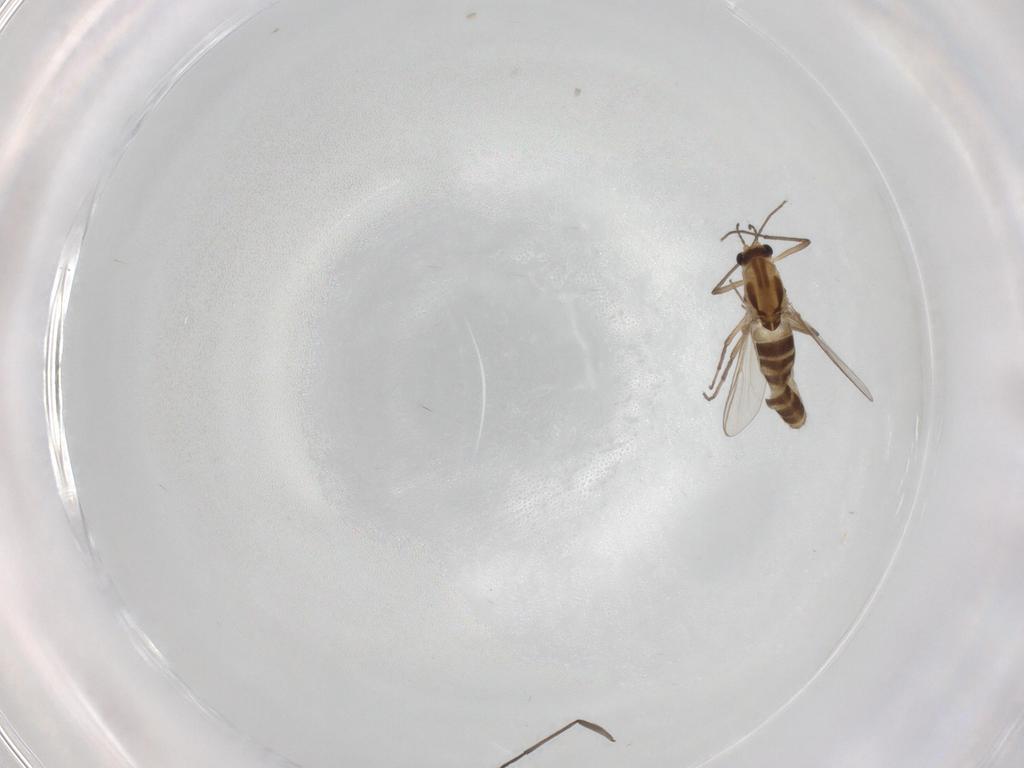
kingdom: Animalia
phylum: Arthropoda
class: Insecta
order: Diptera
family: Chironomidae
